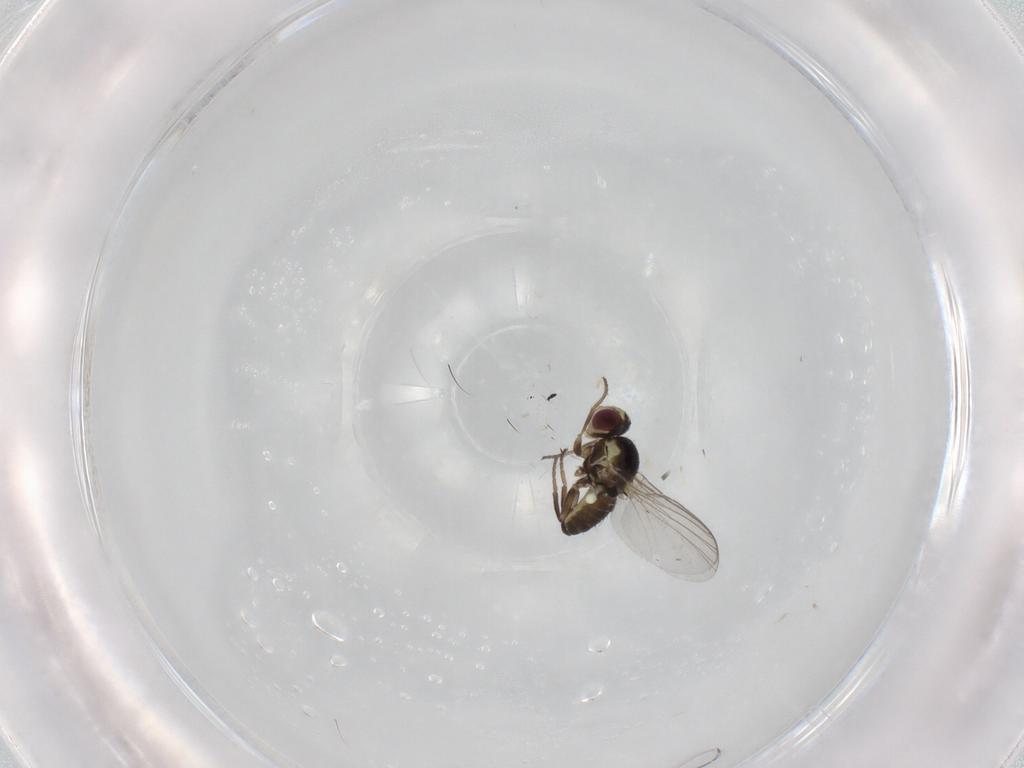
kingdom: Animalia
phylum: Arthropoda
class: Insecta
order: Diptera
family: Agromyzidae
